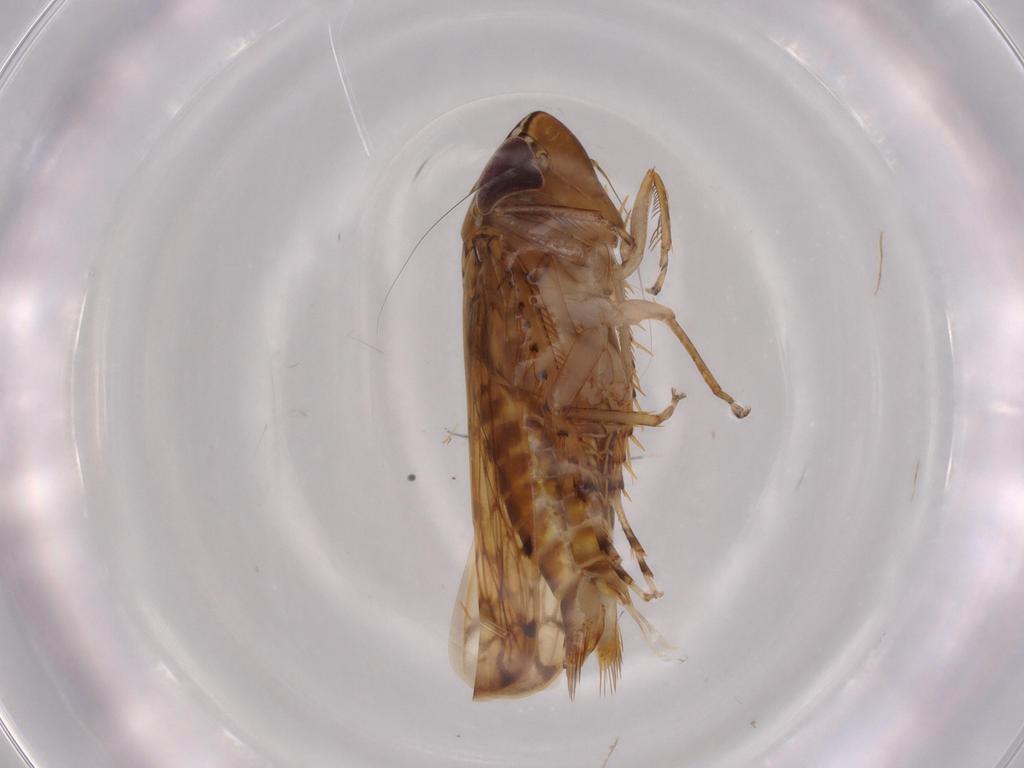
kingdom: Animalia
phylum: Arthropoda
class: Insecta
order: Hemiptera
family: Cicadellidae
